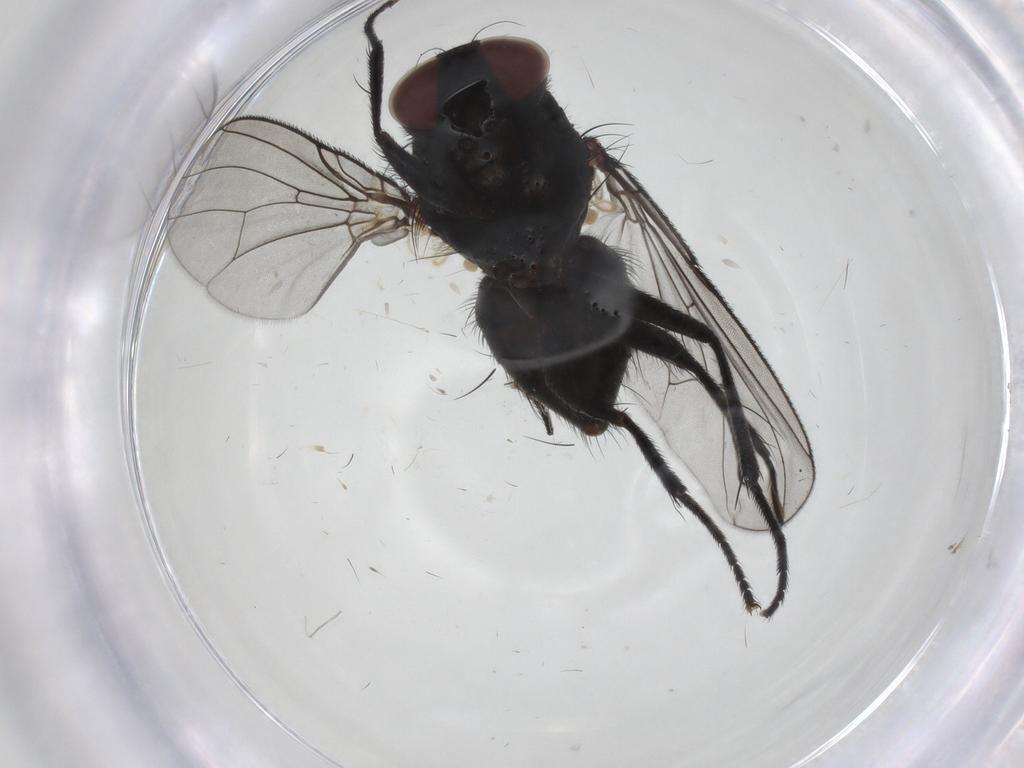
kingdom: Animalia
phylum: Arthropoda
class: Insecta
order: Diptera
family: Muscidae
